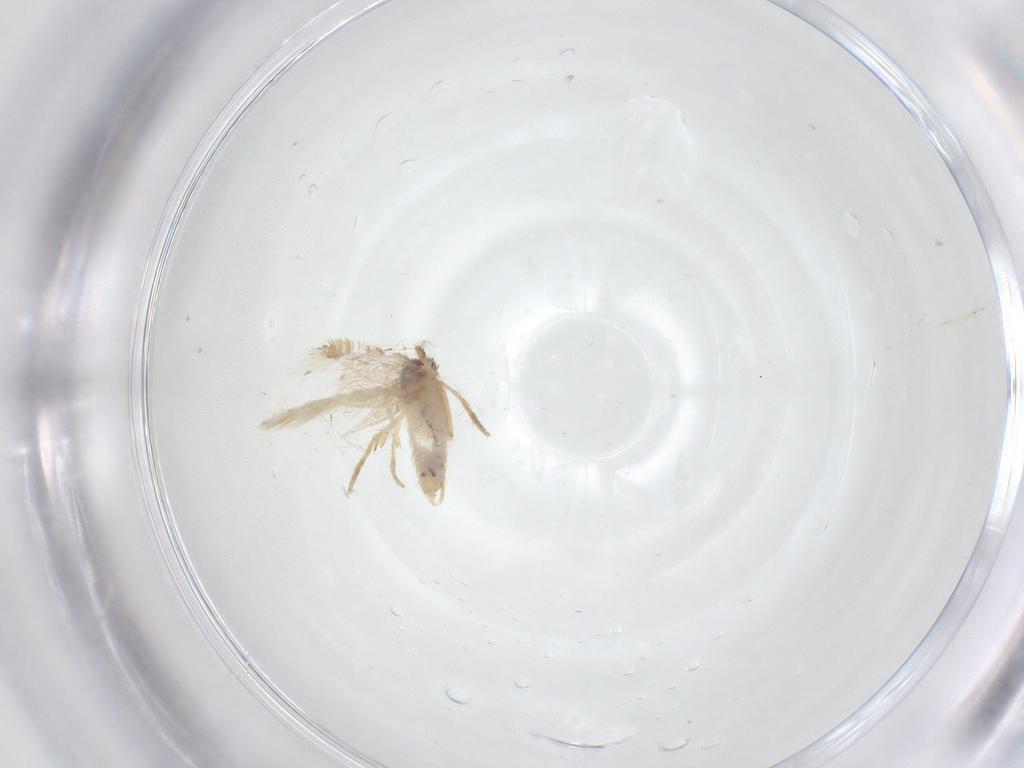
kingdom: Animalia
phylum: Arthropoda
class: Insecta
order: Lepidoptera
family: Nepticulidae
